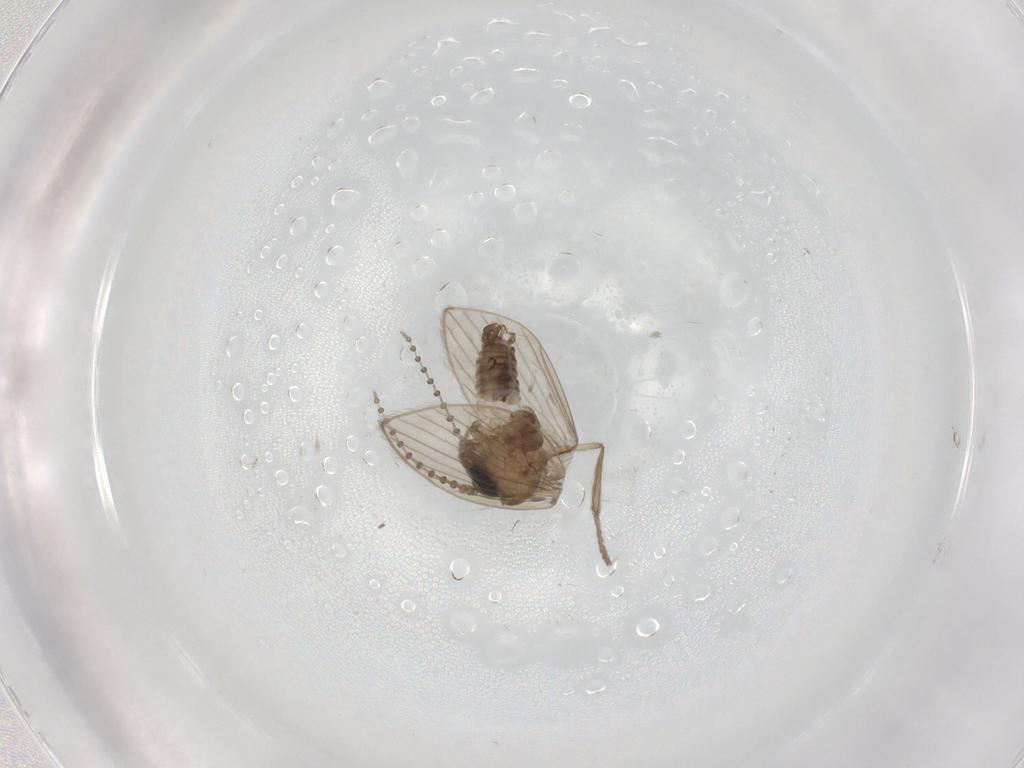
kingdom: Animalia
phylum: Arthropoda
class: Insecta
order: Diptera
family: Psychodidae
